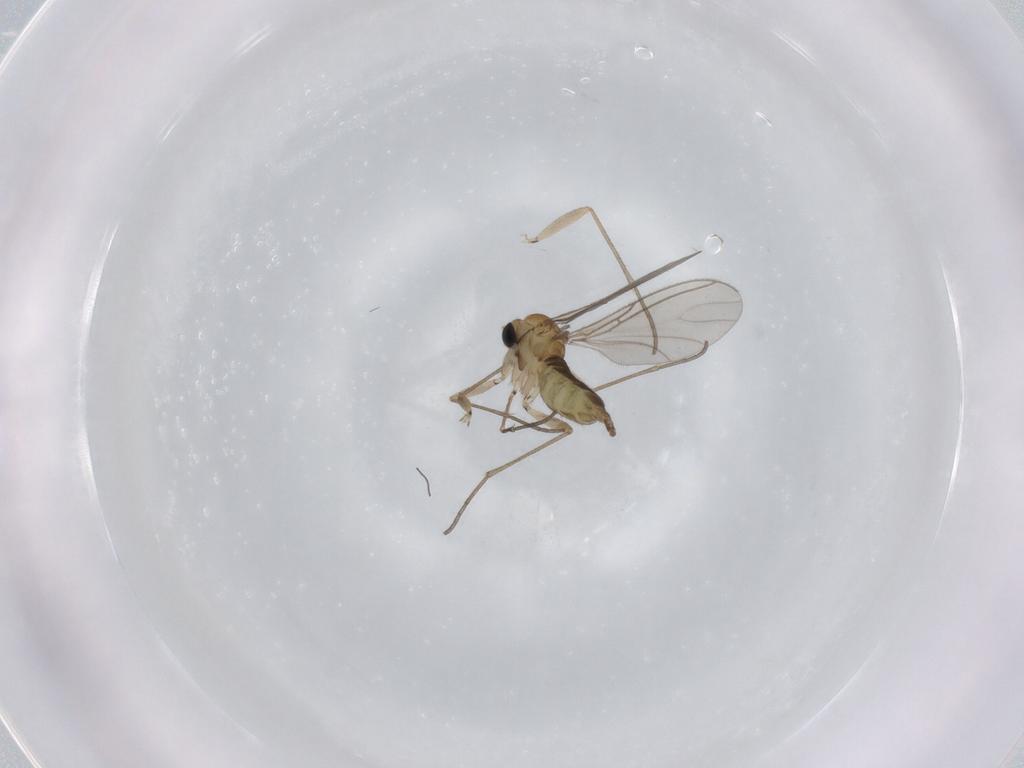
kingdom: Animalia
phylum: Arthropoda
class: Insecta
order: Diptera
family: Sciaridae
